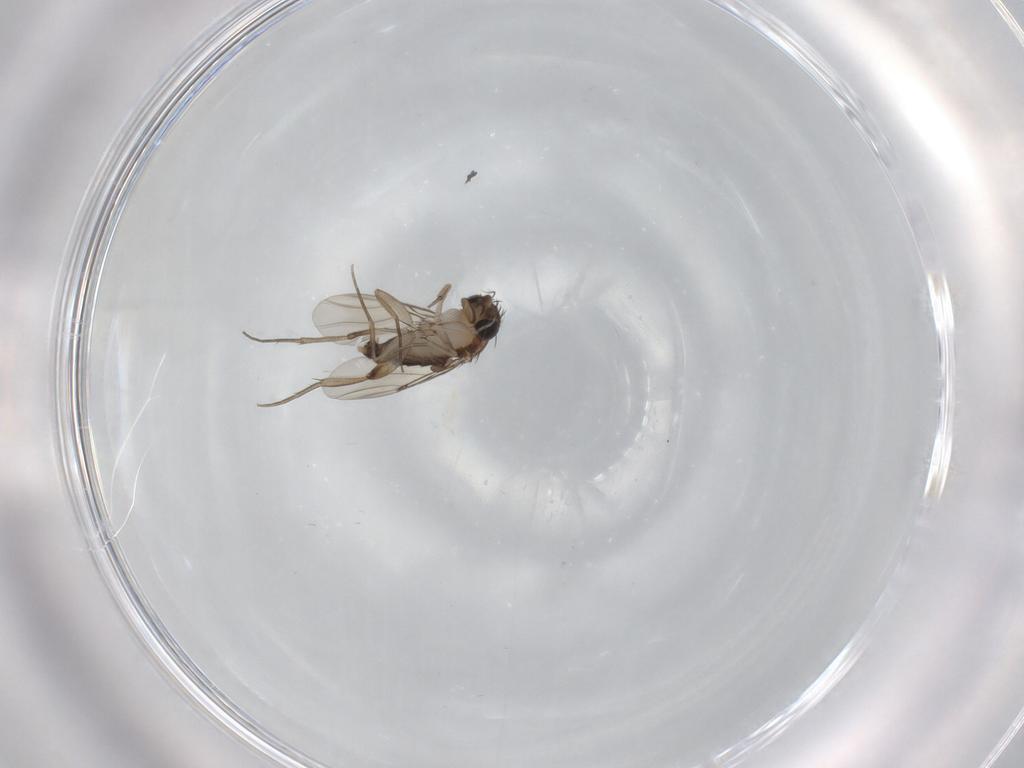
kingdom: Animalia
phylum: Arthropoda
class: Insecta
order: Diptera
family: Phoridae
